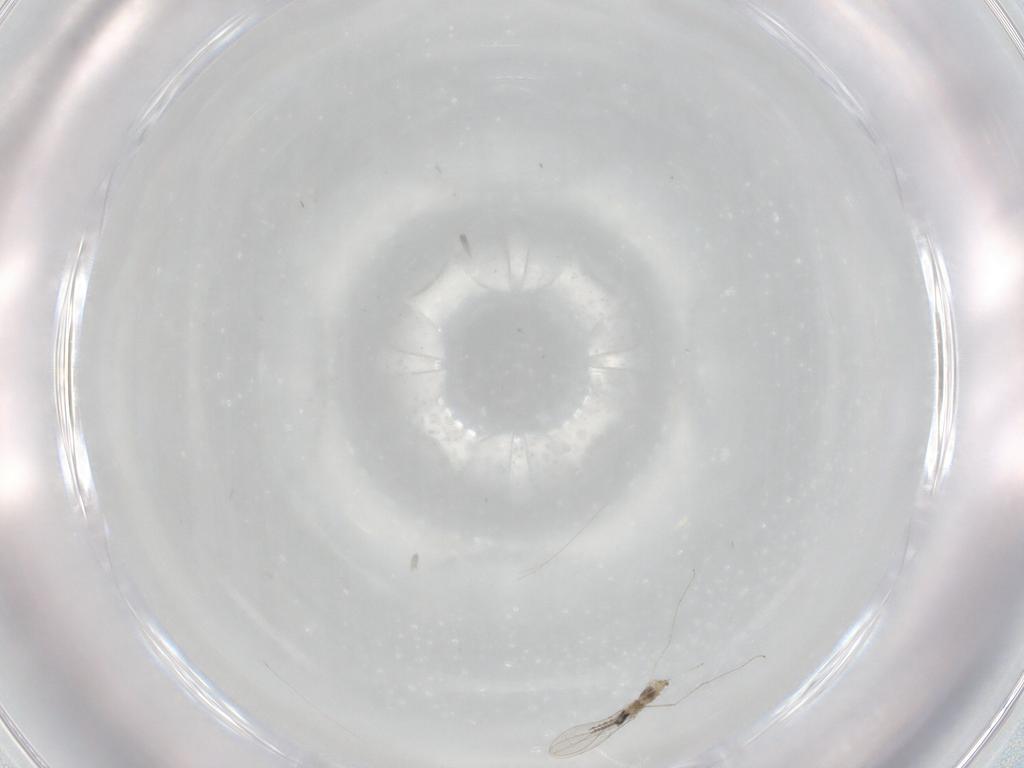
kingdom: Animalia
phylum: Arthropoda
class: Insecta
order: Diptera
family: Cecidomyiidae
